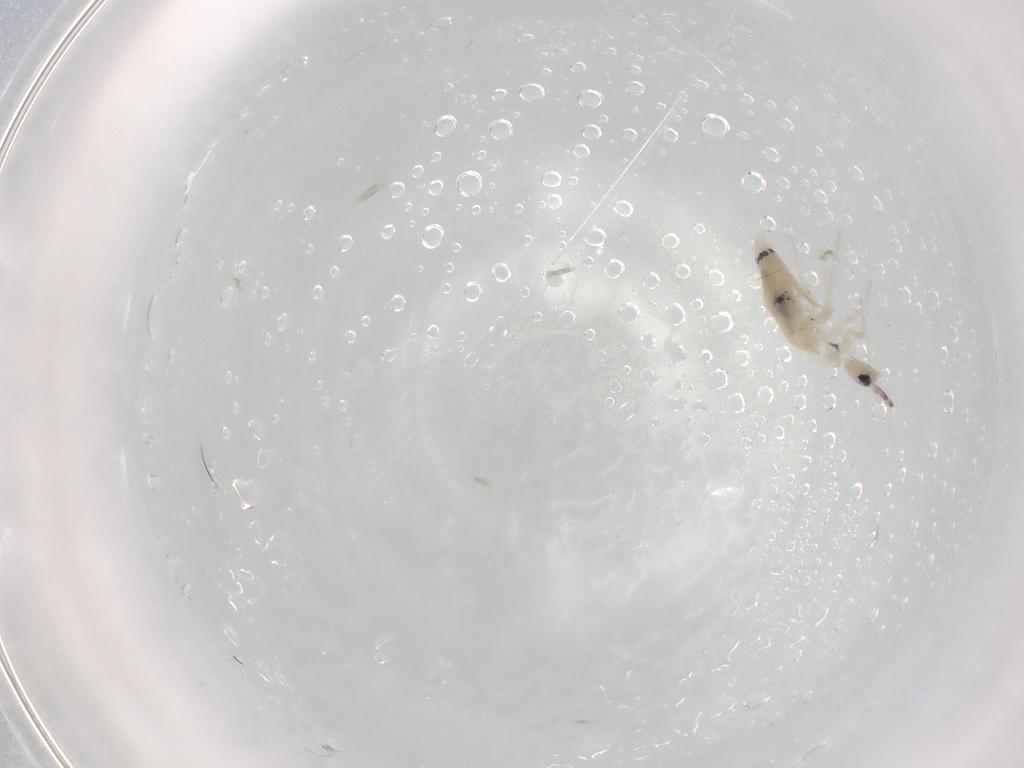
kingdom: Animalia
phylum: Arthropoda
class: Collembola
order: Entomobryomorpha
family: Entomobryidae
